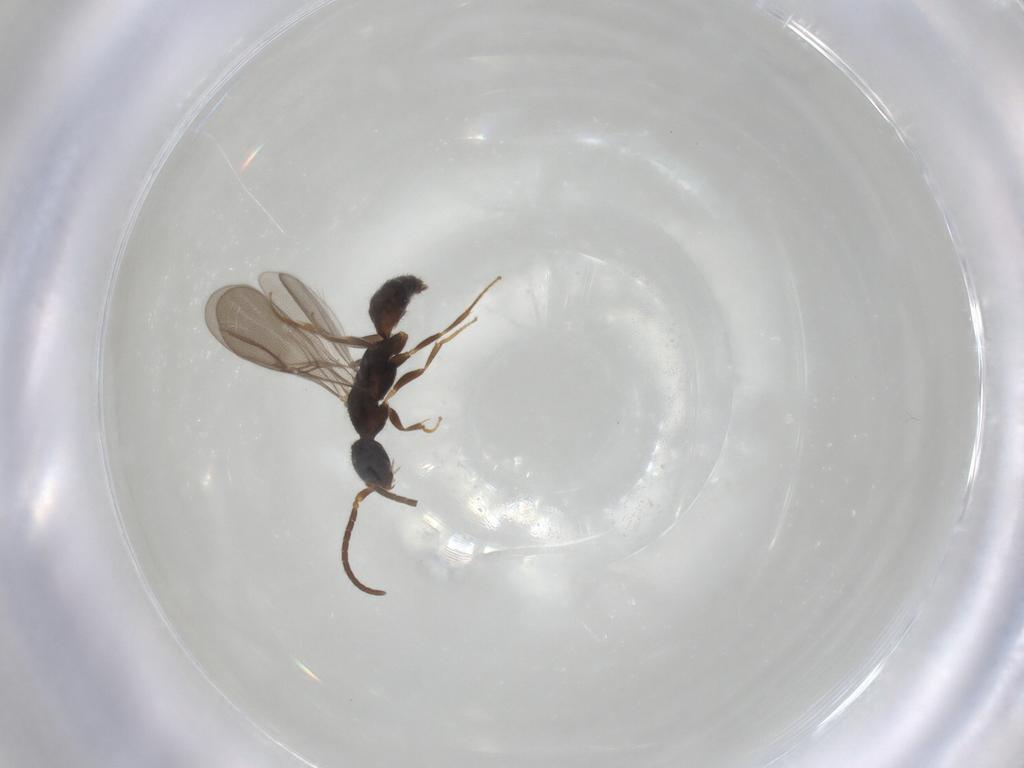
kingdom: Animalia
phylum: Arthropoda
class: Insecta
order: Hymenoptera
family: Bethylidae
